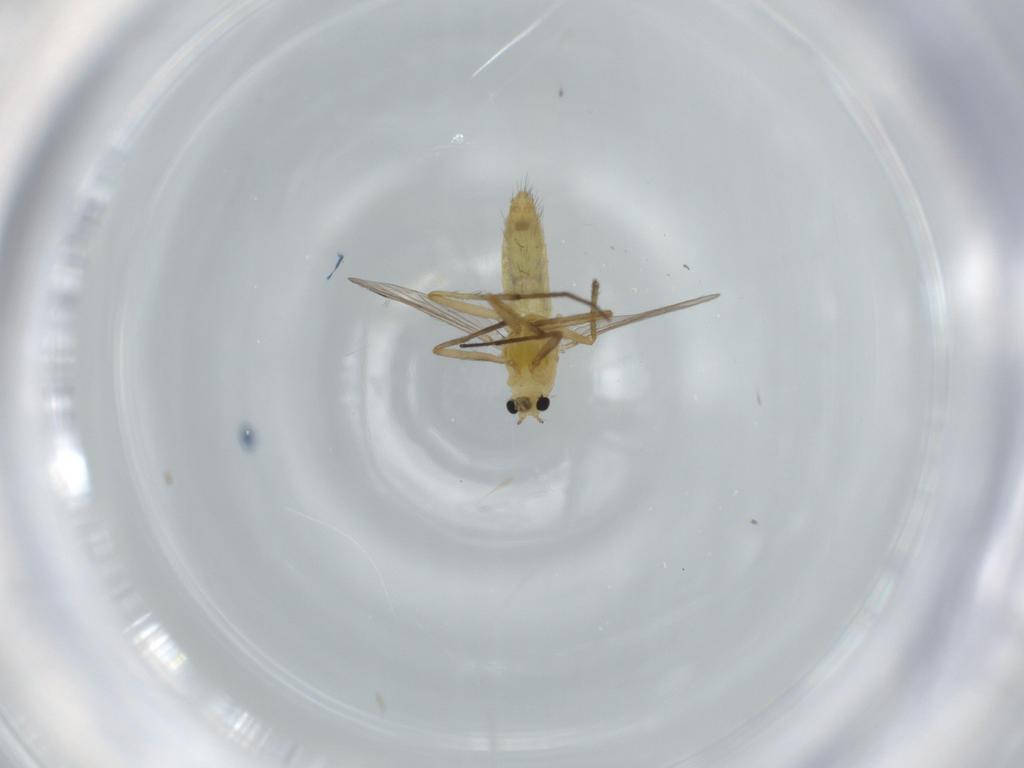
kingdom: Animalia
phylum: Arthropoda
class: Insecta
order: Diptera
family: Chironomidae
